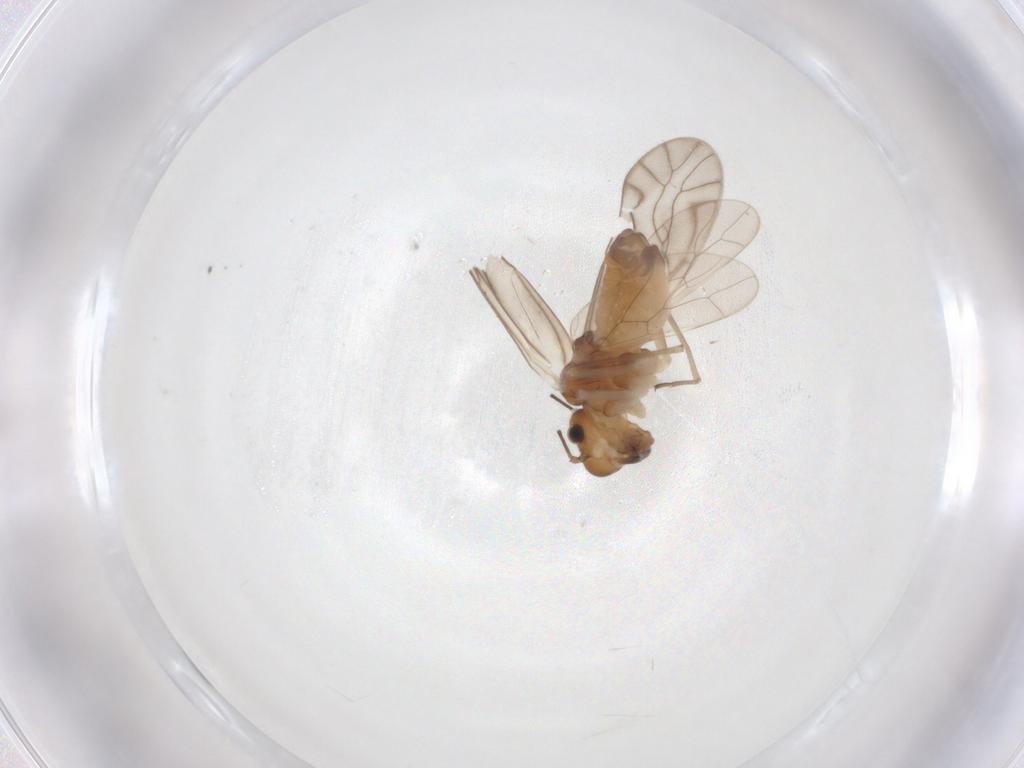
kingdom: Animalia
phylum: Arthropoda
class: Insecta
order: Psocodea
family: Philotarsidae
